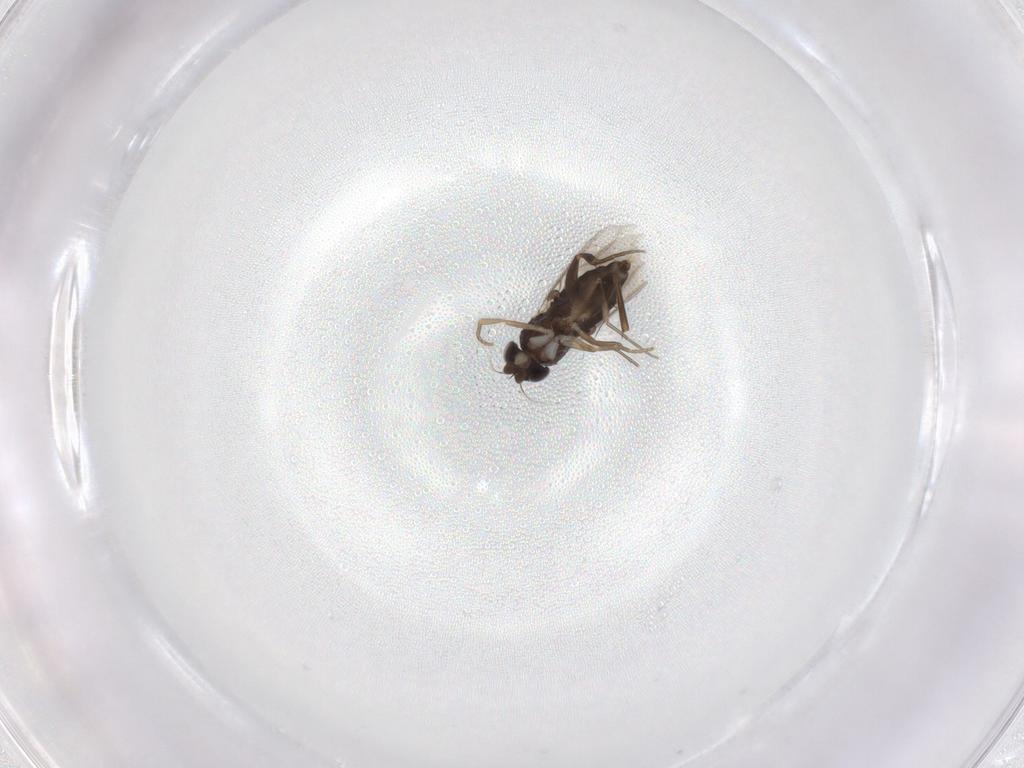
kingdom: Animalia
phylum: Arthropoda
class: Insecta
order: Diptera
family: Phoridae
